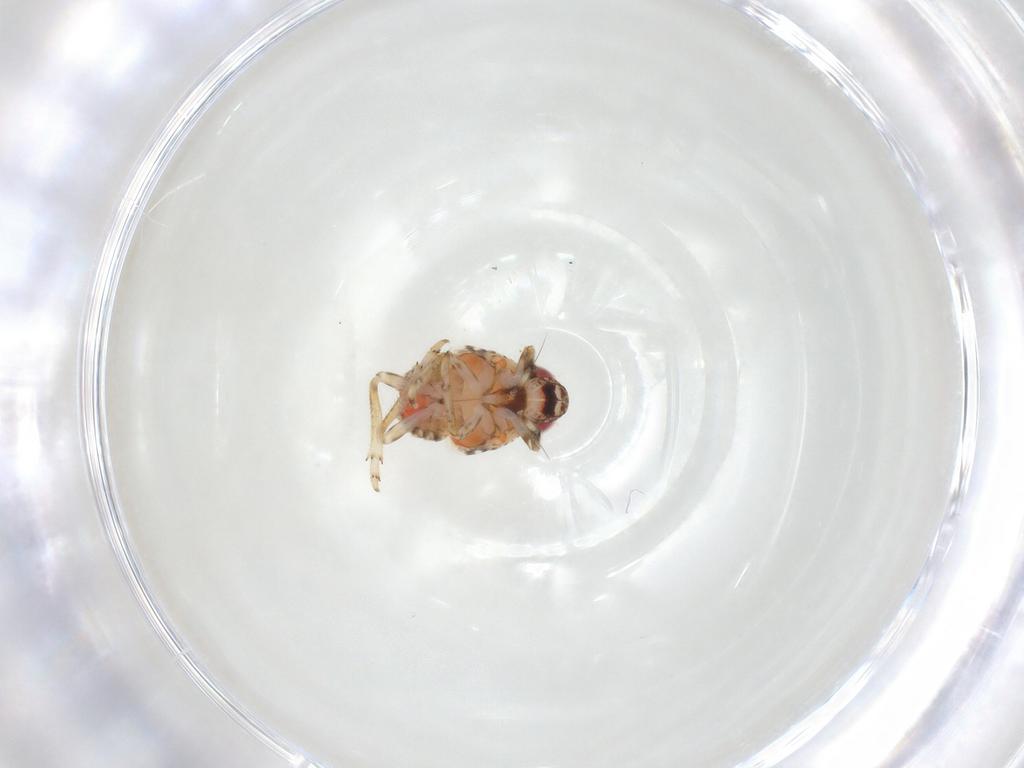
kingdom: Animalia
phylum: Arthropoda
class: Insecta
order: Hemiptera
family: Issidae
